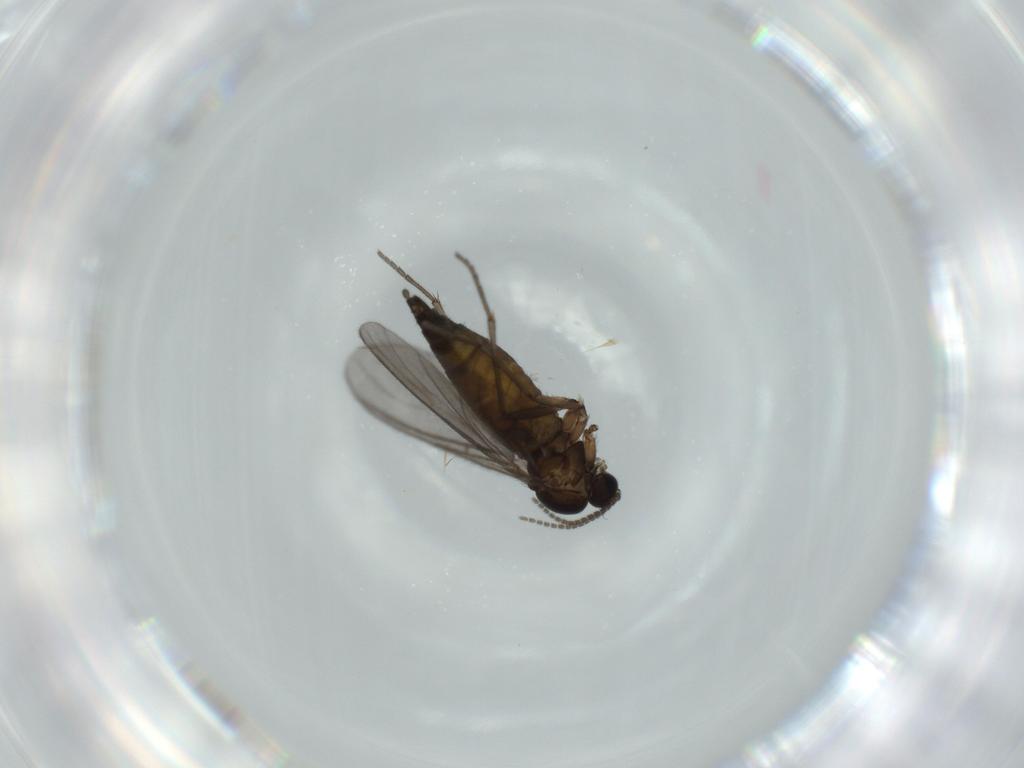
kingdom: Animalia
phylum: Arthropoda
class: Insecta
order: Diptera
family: Sciaridae
